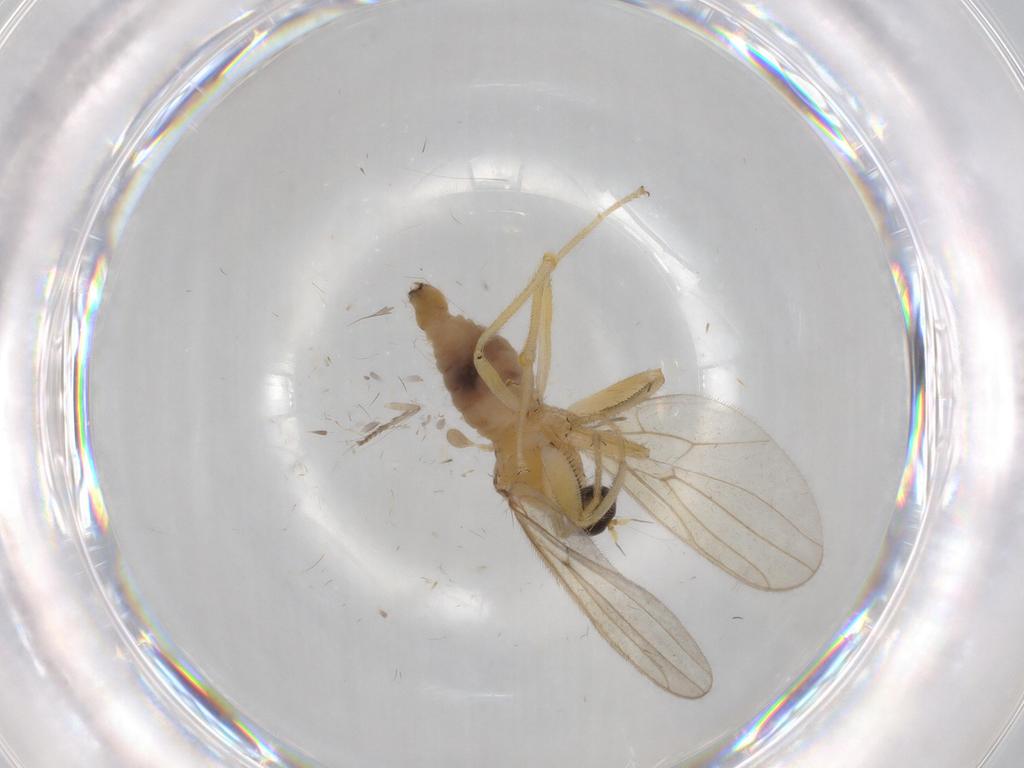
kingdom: Animalia
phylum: Arthropoda
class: Insecta
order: Diptera
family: Hybotidae
